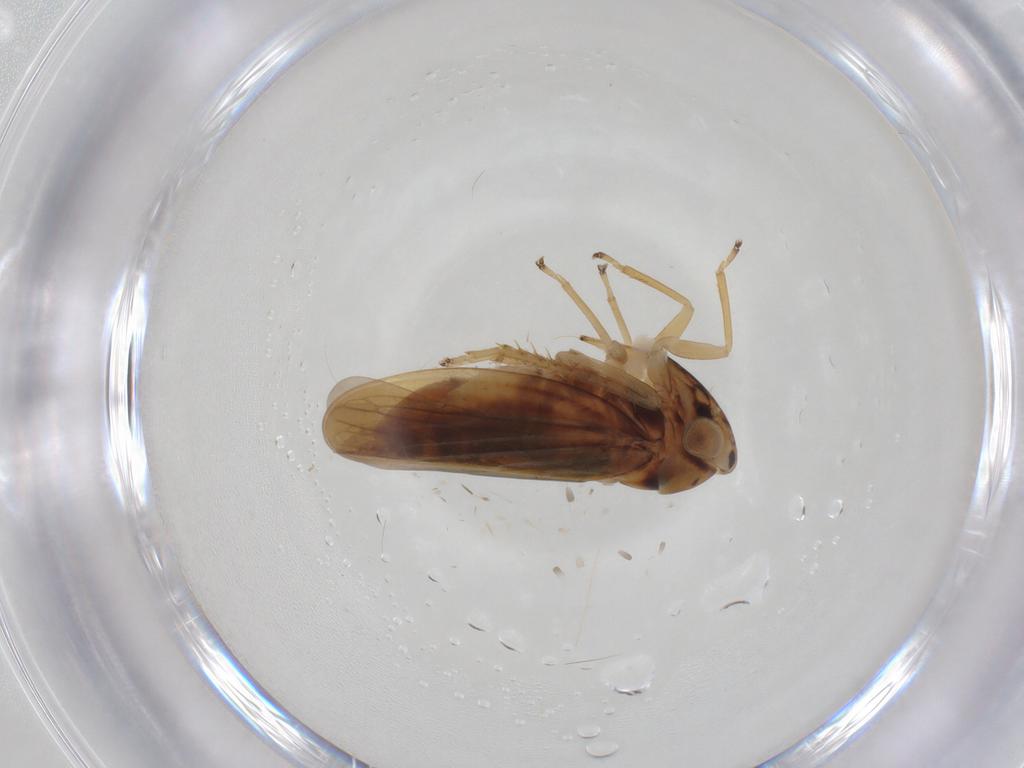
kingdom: Animalia
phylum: Arthropoda
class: Insecta
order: Hemiptera
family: Cicadellidae
